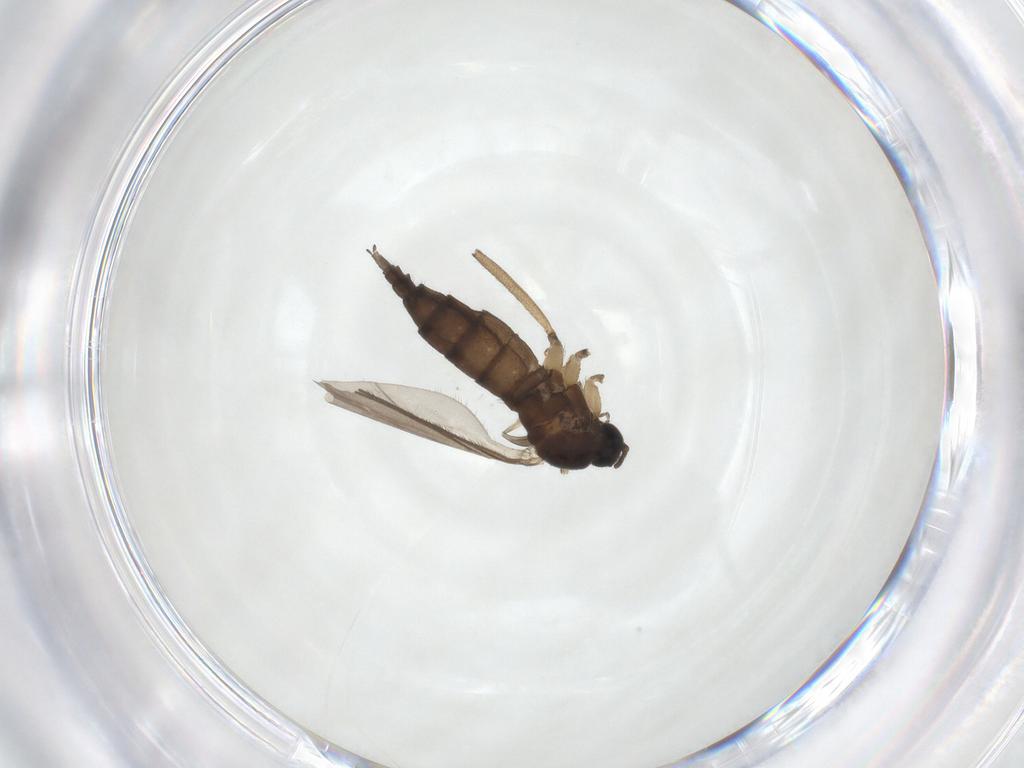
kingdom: Animalia
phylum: Arthropoda
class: Insecta
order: Diptera
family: Sciaridae
